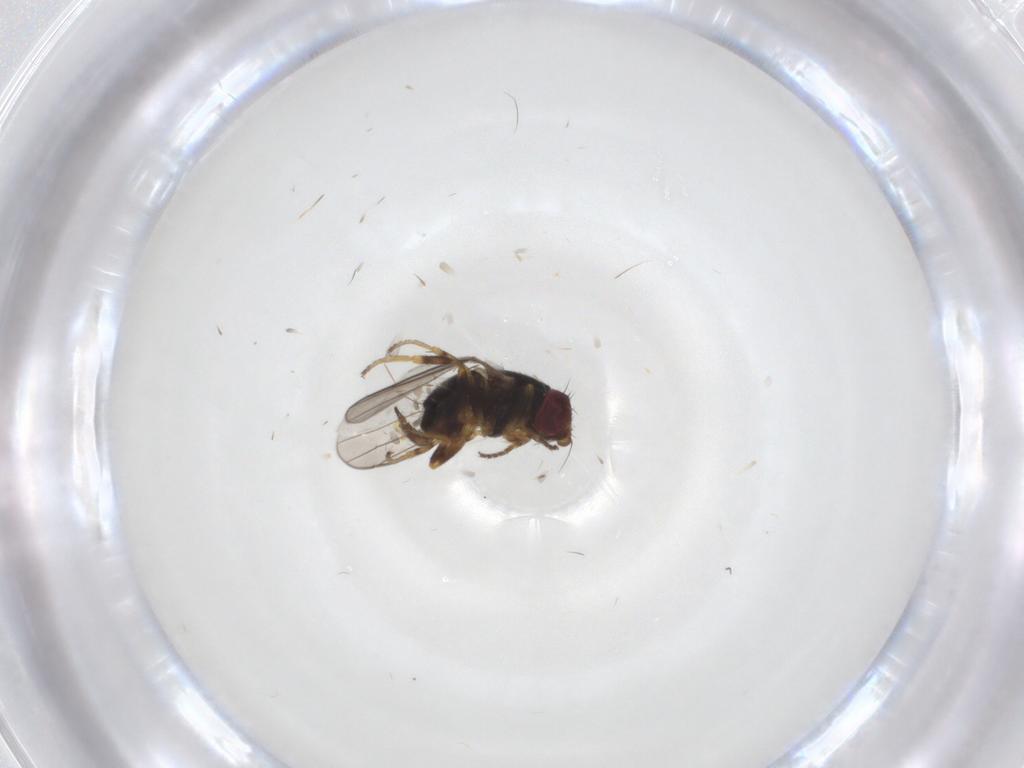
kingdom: Animalia
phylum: Arthropoda
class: Insecta
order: Diptera
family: Chloropidae
